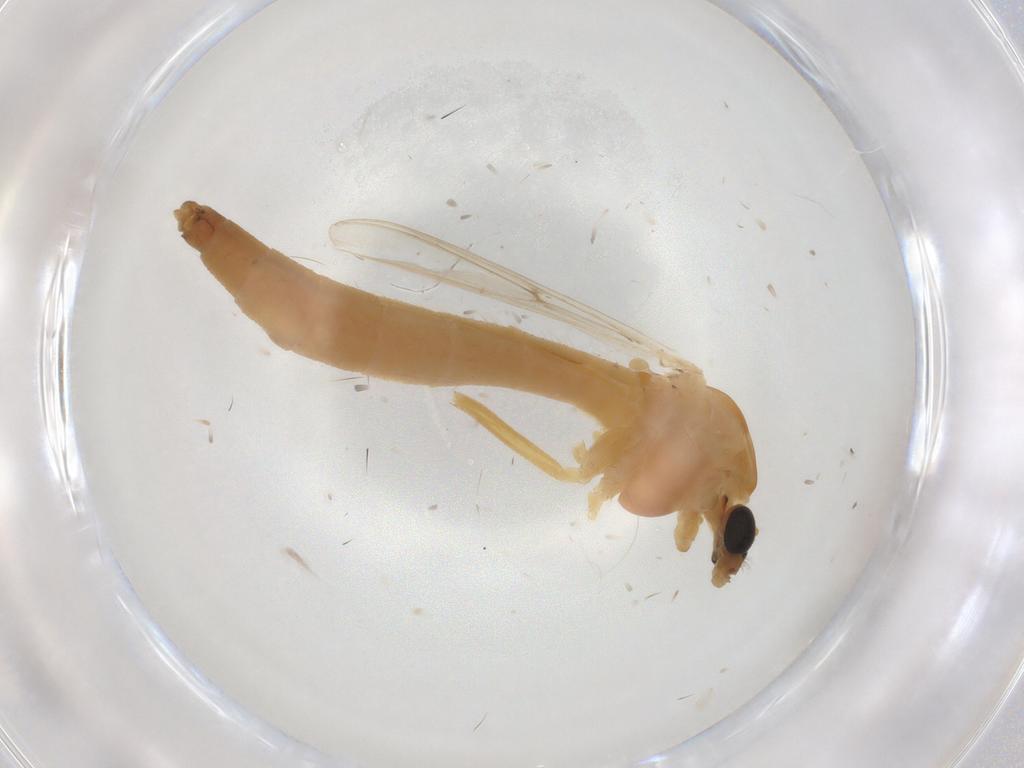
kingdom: Animalia
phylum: Arthropoda
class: Insecta
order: Diptera
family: Chironomidae
